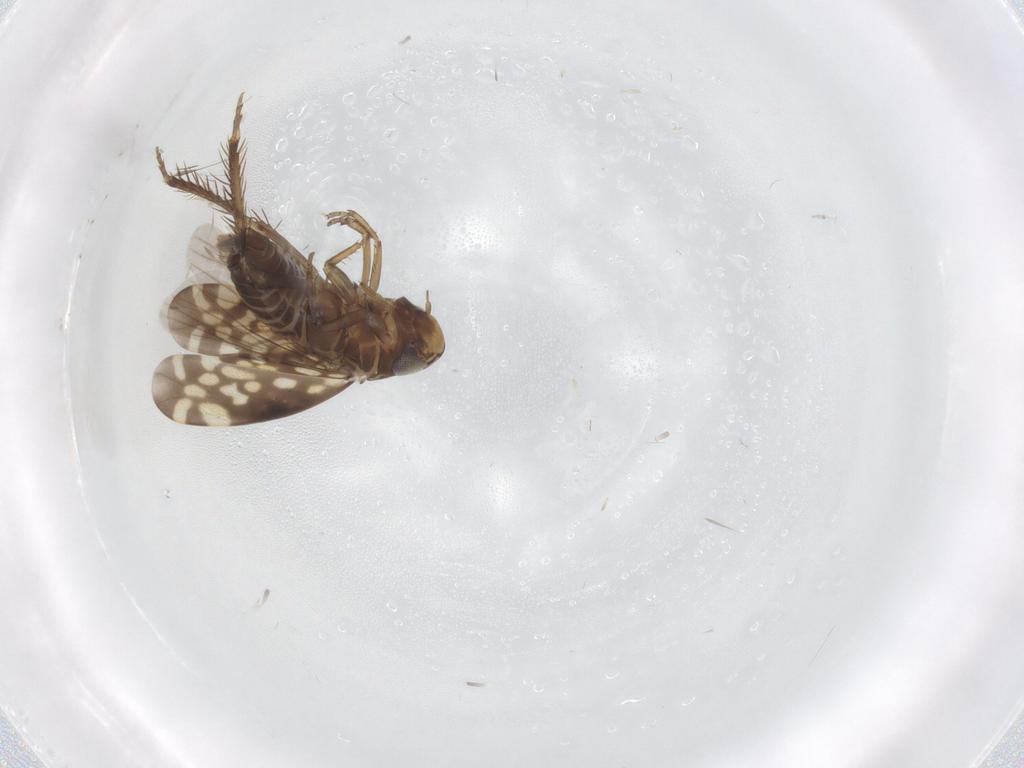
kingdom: Animalia
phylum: Arthropoda
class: Insecta
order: Hemiptera
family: Cicadellidae
